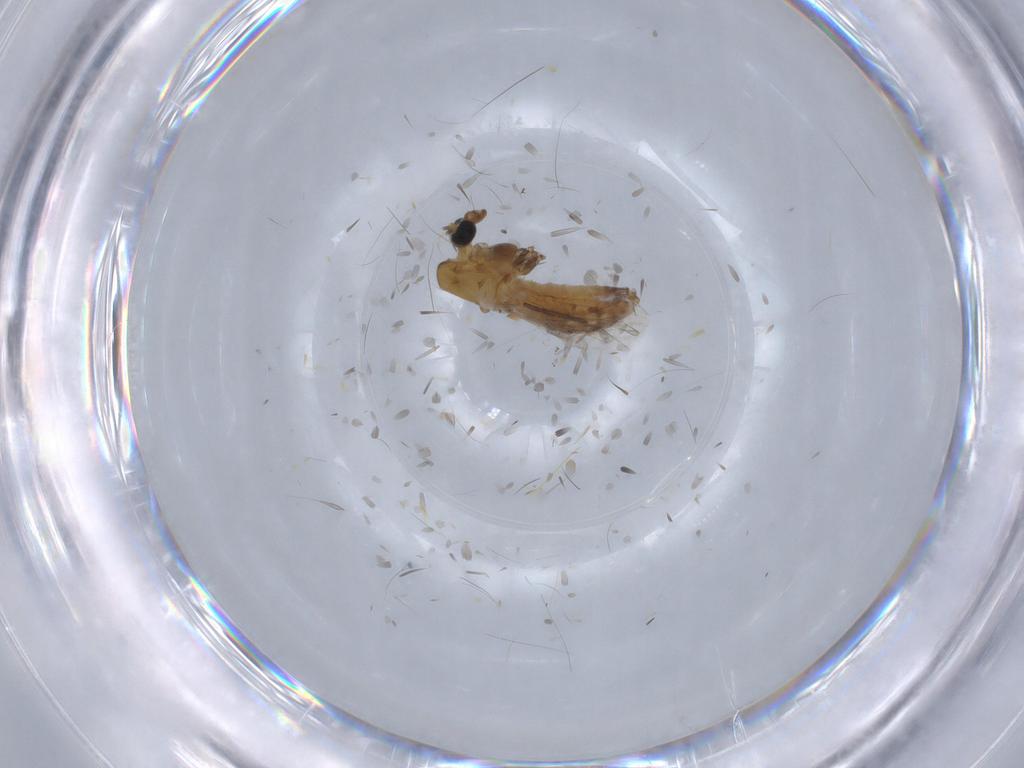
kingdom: Animalia
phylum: Arthropoda
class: Insecta
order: Diptera
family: Chironomidae
